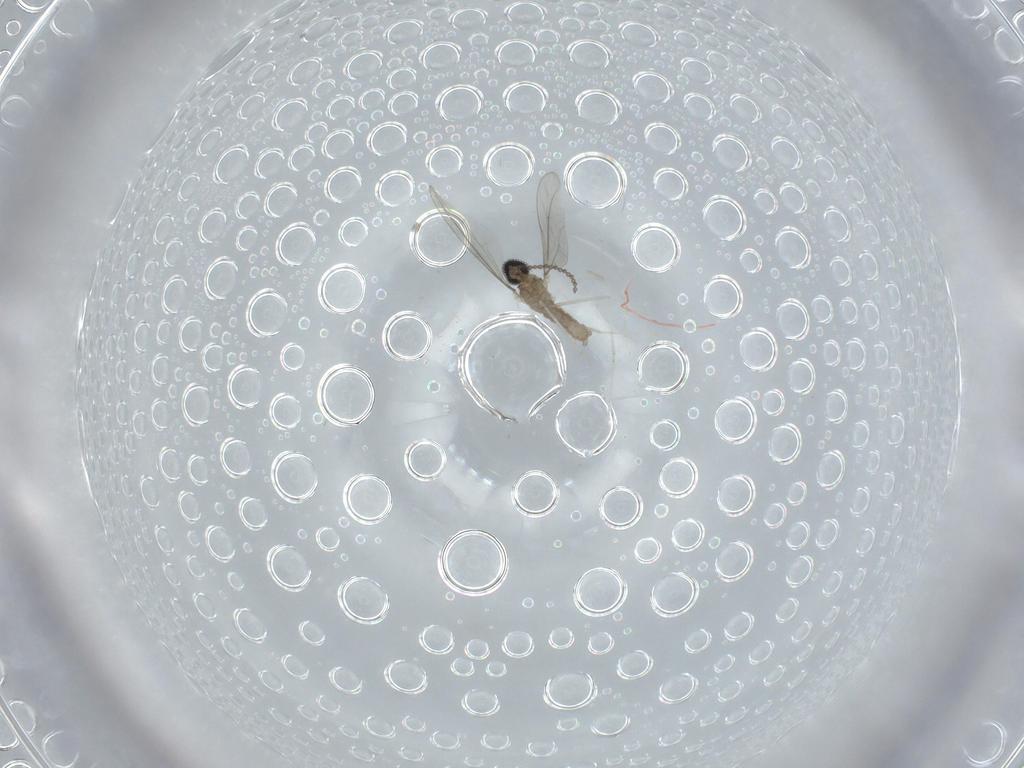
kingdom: Animalia
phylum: Arthropoda
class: Insecta
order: Diptera
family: Cecidomyiidae
